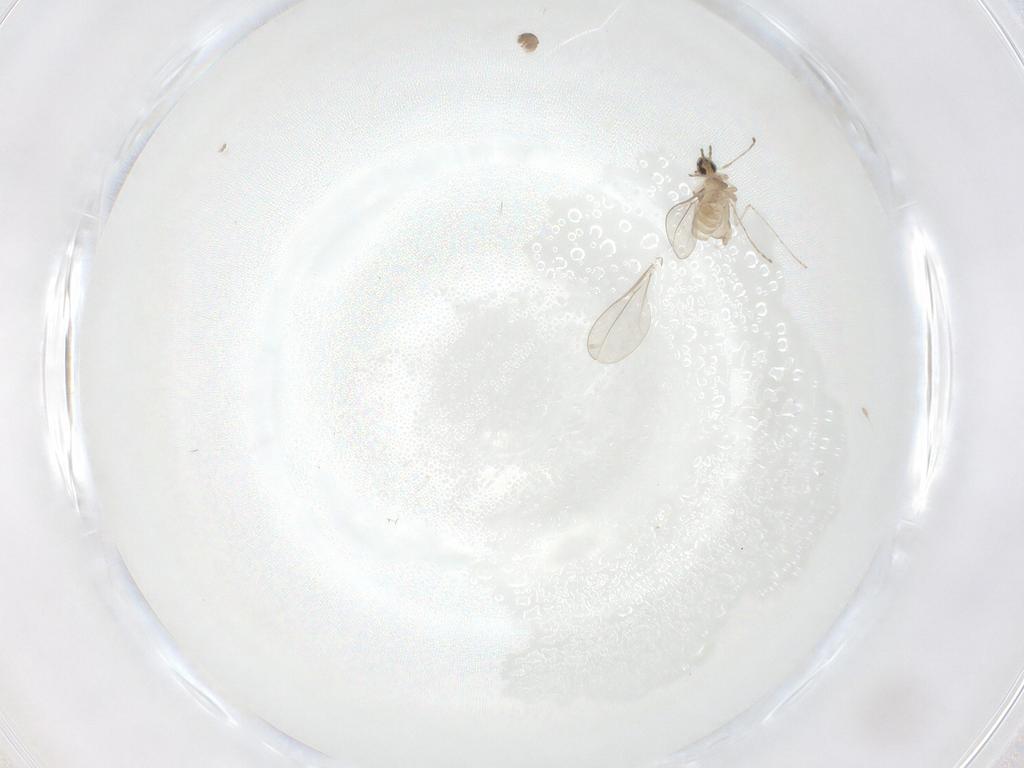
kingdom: Animalia
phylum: Arthropoda
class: Insecta
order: Diptera
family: Cecidomyiidae
